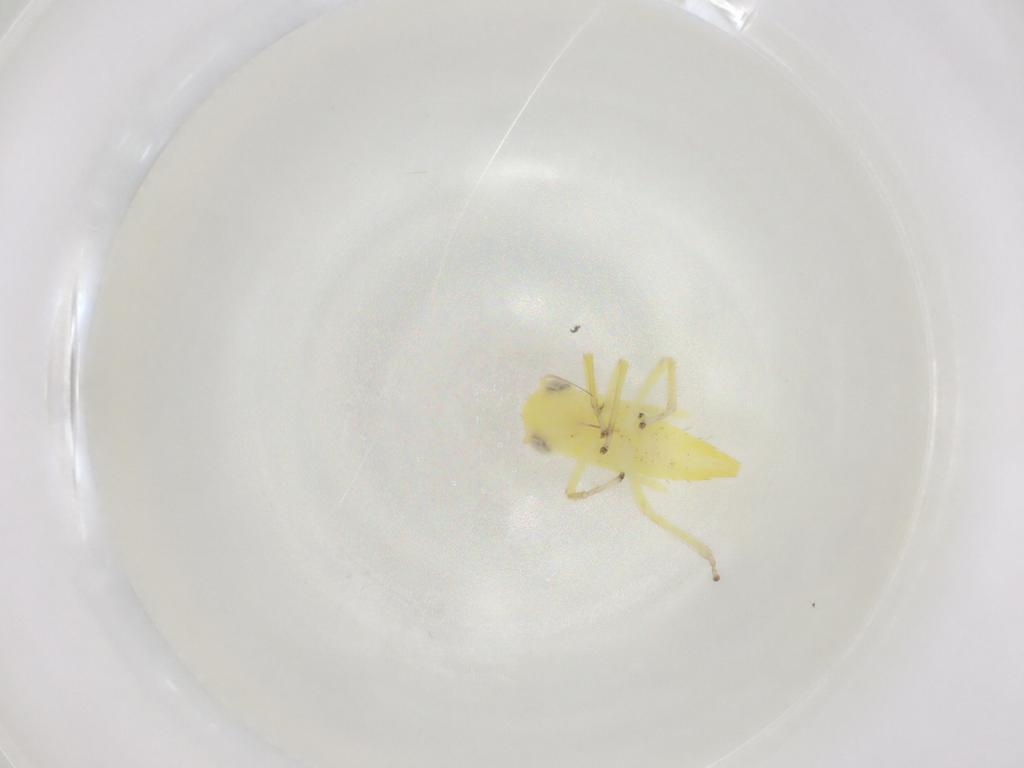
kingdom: Animalia
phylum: Arthropoda
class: Insecta
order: Hemiptera
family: Cicadellidae
